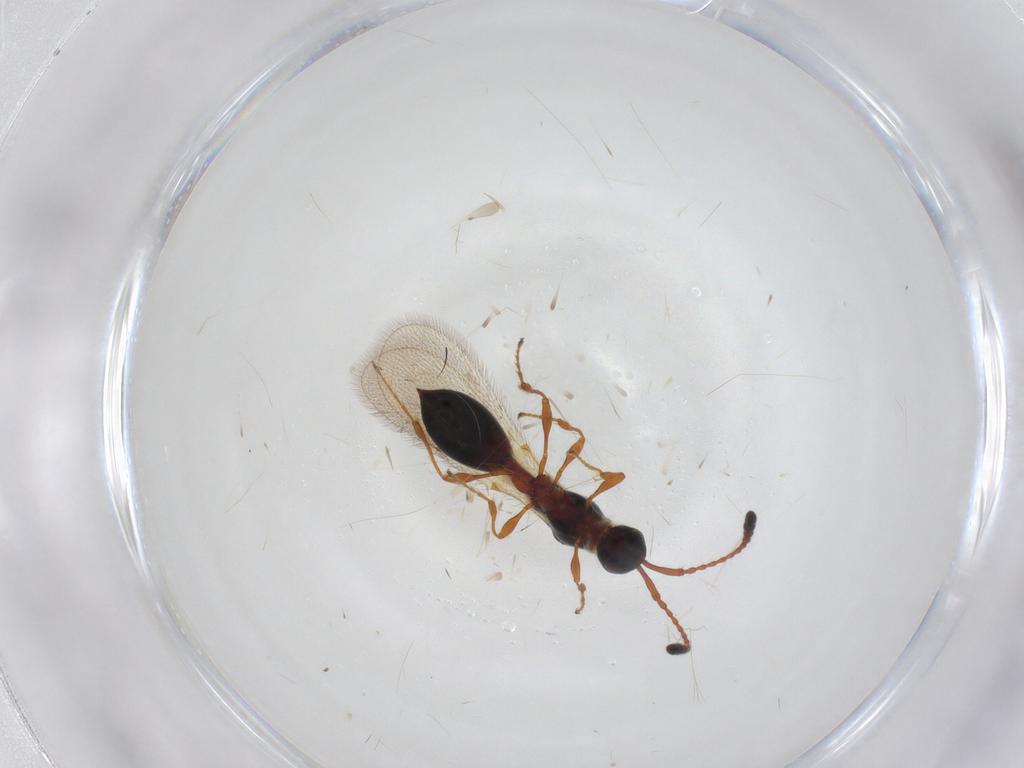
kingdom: Animalia
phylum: Arthropoda
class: Insecta
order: Hymenoptera
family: Diapriidae
